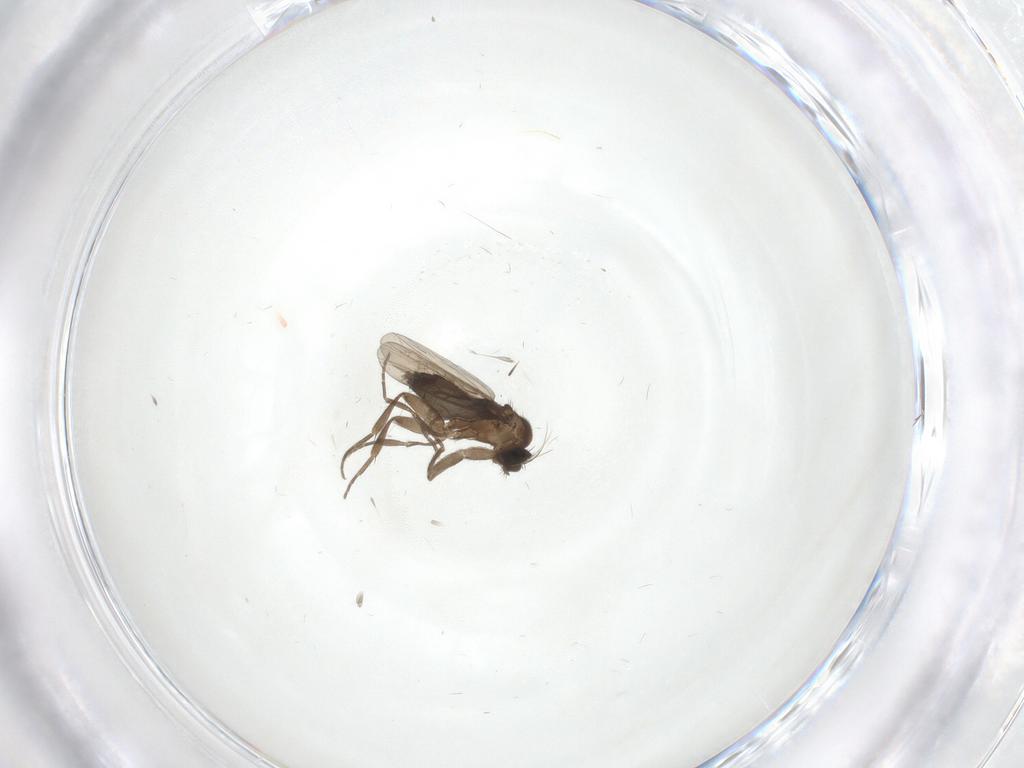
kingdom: Animalia
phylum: Arthropoda
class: Insecta
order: Diptera
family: Phoridae
